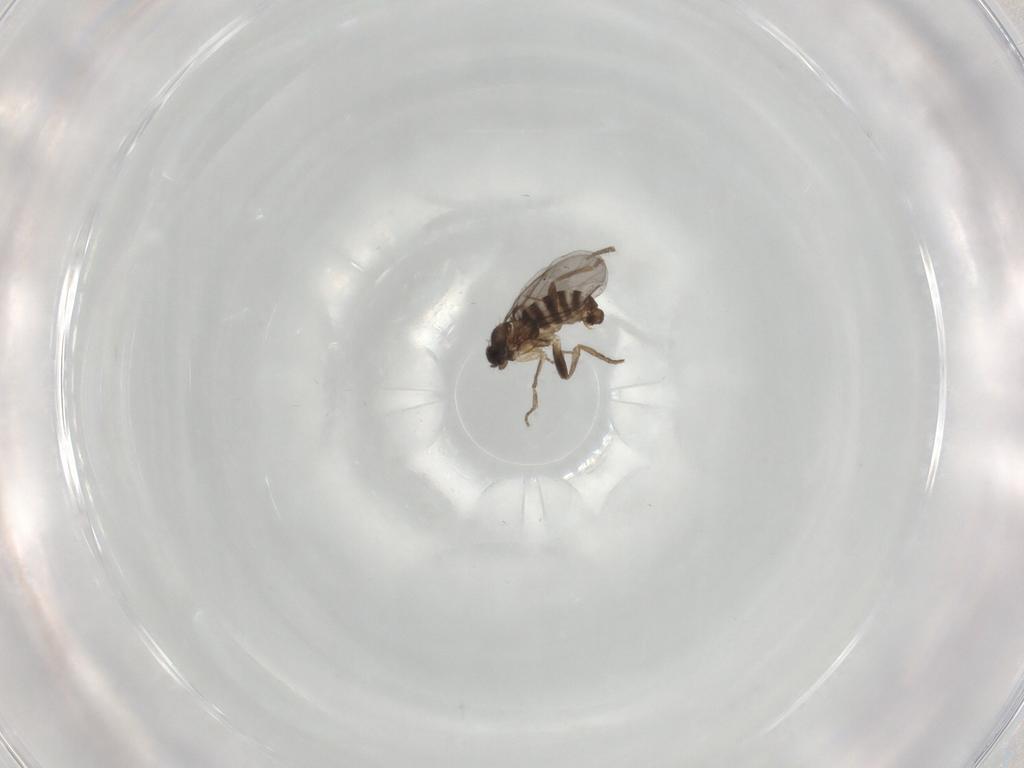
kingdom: Animalia
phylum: Arthropoda
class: Insecta
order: Diptera
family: Cecidomyiidae
